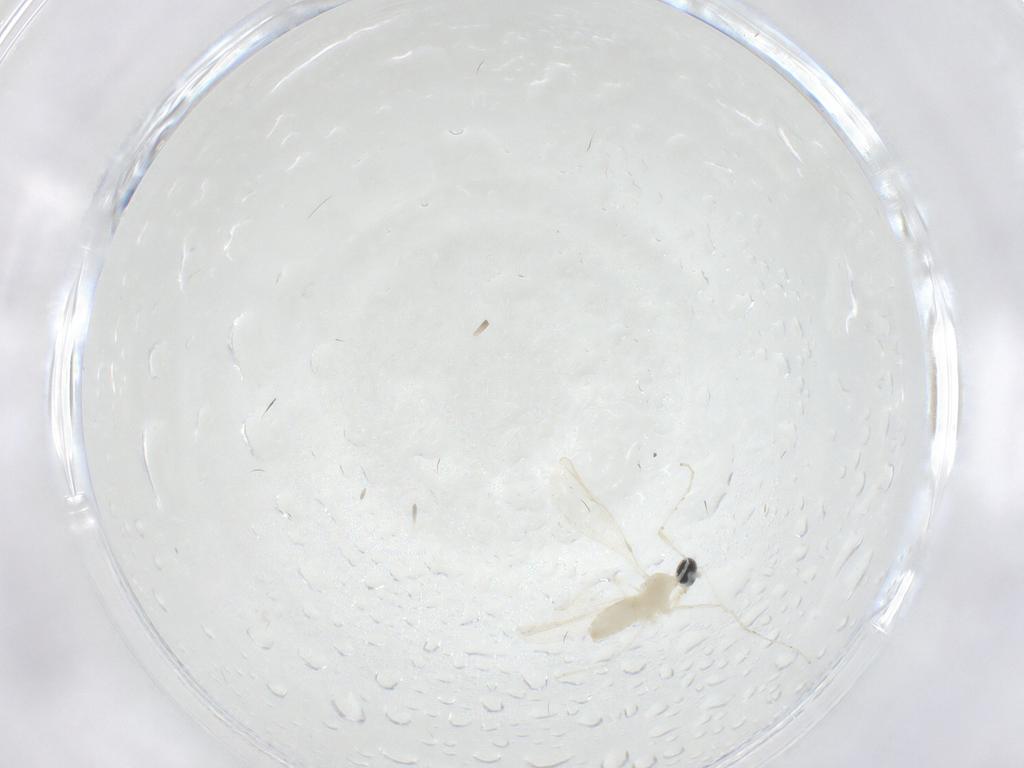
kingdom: Animalia
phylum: Arthropoda
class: Insecta
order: Diptera
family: Cecidomyiidae
